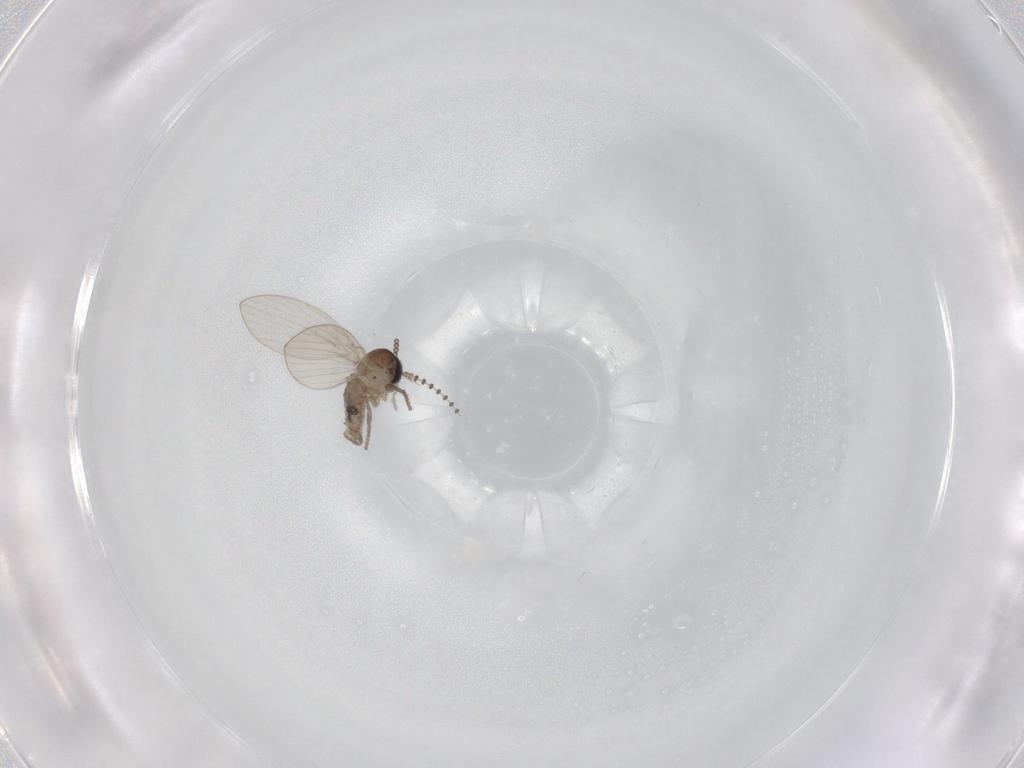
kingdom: Animalia
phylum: Arthropoda
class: Insecta
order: Diptera
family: Psychodidae
